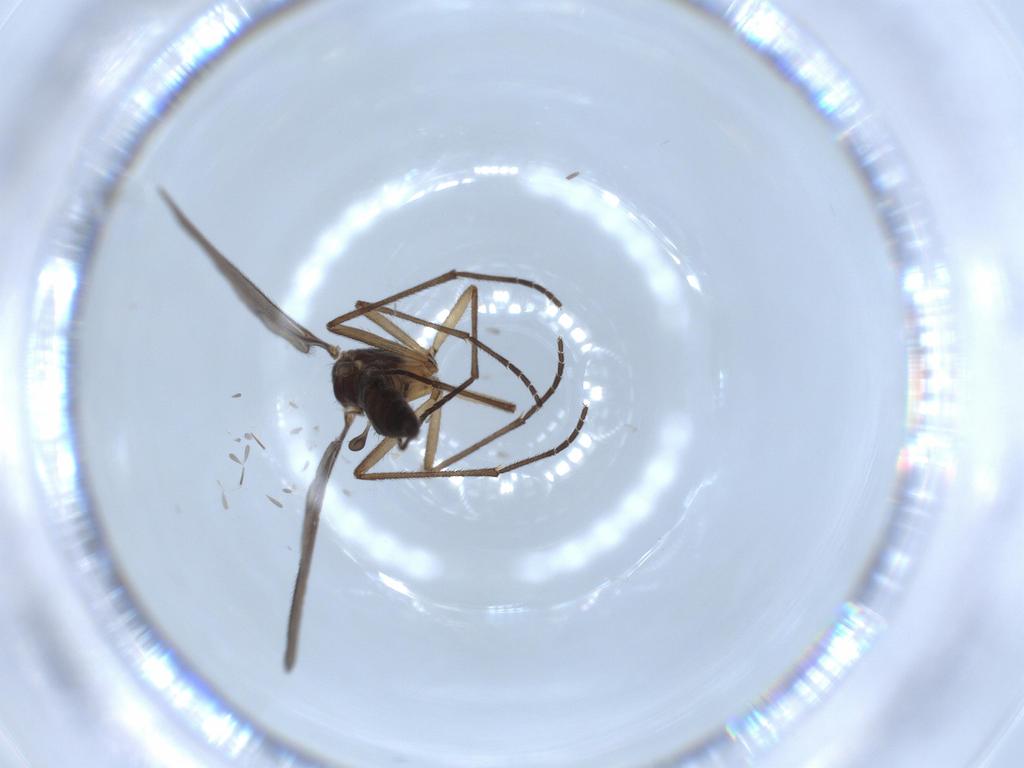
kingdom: Animalia
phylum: Arthropoda
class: Insecta
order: Diptera
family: Sciaridae
